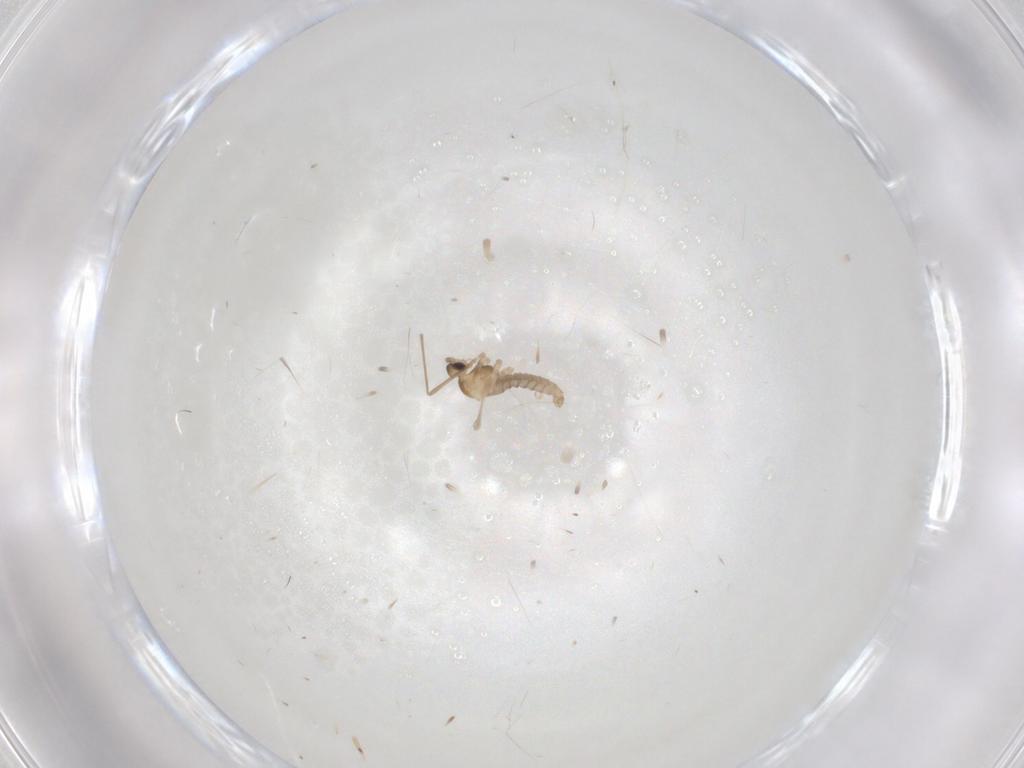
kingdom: Animalia
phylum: Arthropoda
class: Insecta
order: Diptera
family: Cecidomyiidae
